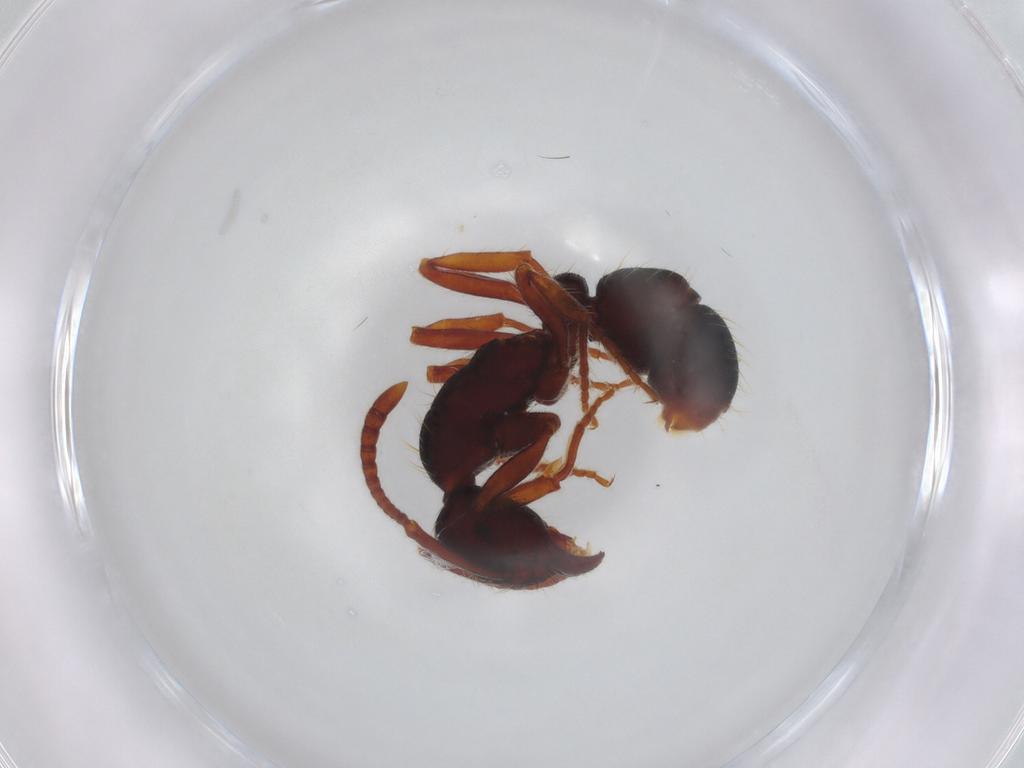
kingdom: Animalia
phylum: Arthropoda
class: Insecta
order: Hymenoptera
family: Formicidae
